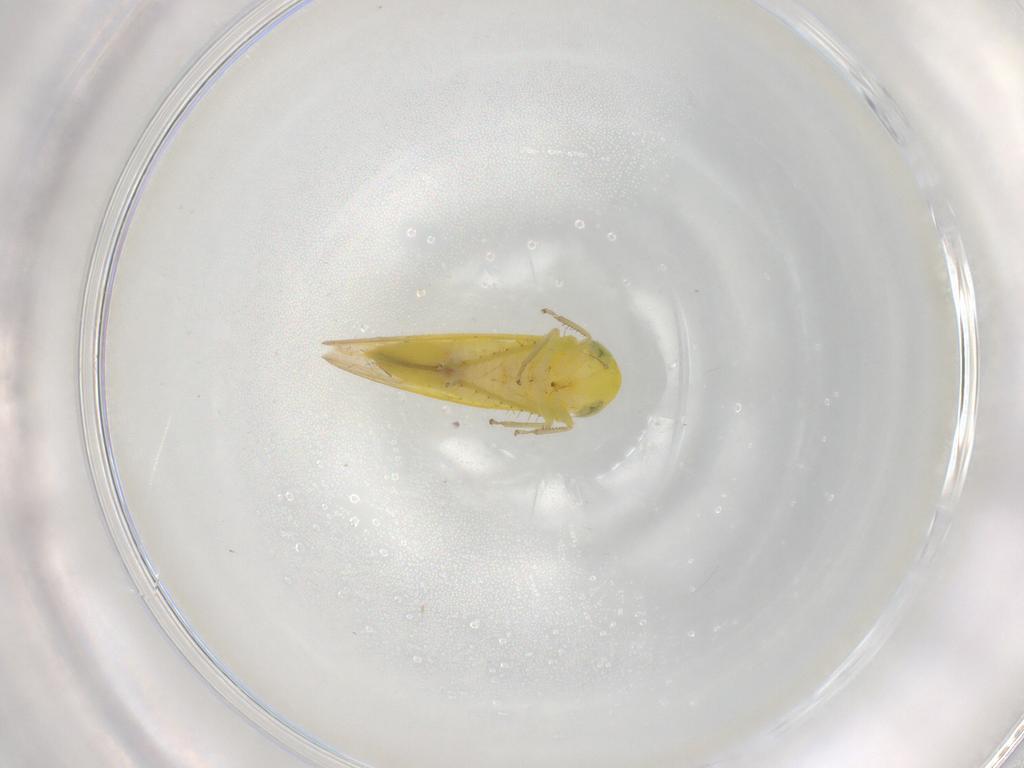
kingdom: Animalia
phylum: Arthropoda
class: Insecta
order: Hemiptera
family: Cicadellidae
